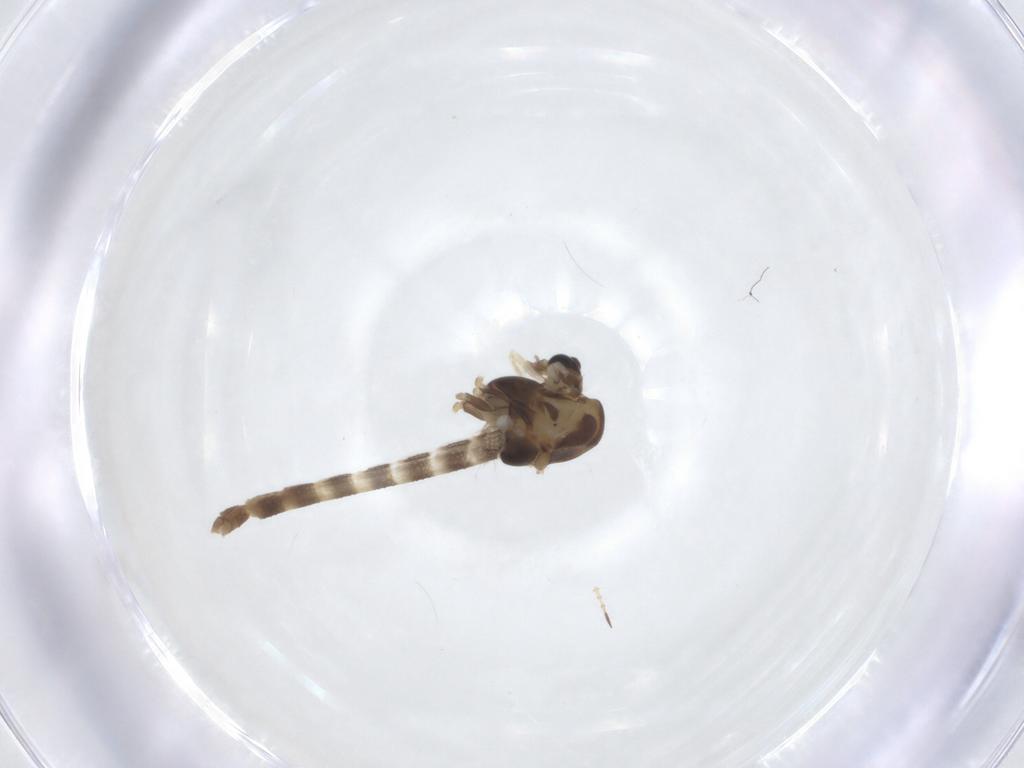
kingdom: Animalia
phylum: Arthropoda
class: Insecta
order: Diptera
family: Chironomidae
